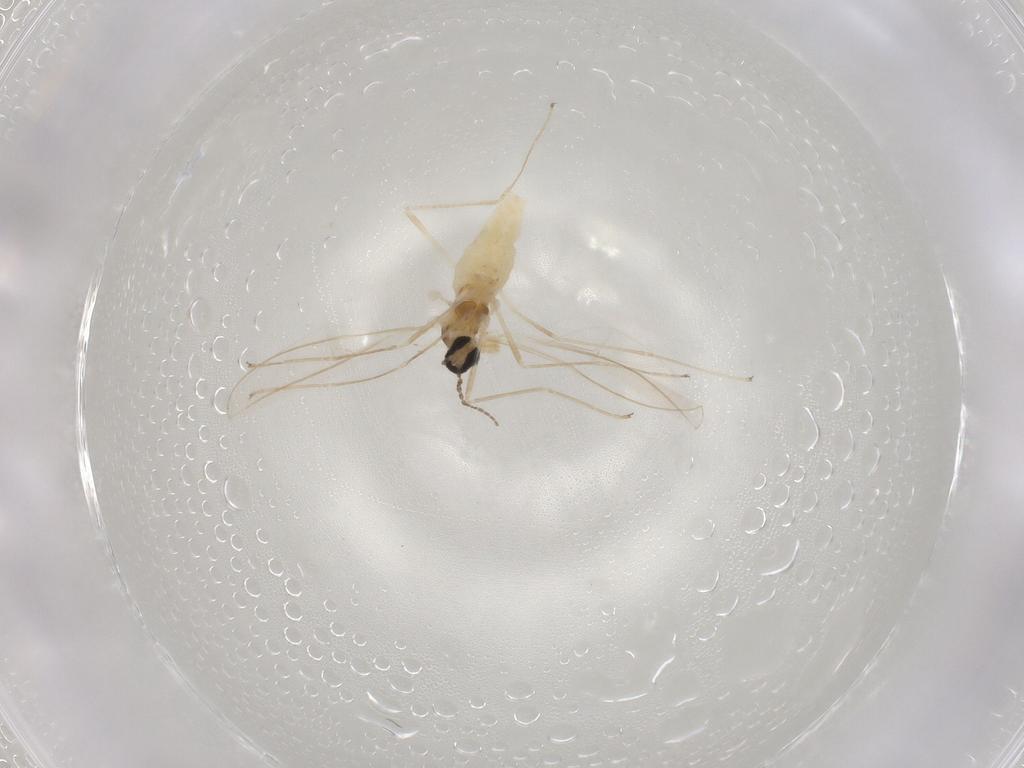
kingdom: Animalia
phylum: Arthropoda
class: Insecta
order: Diptera
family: Cecidomyiidae
